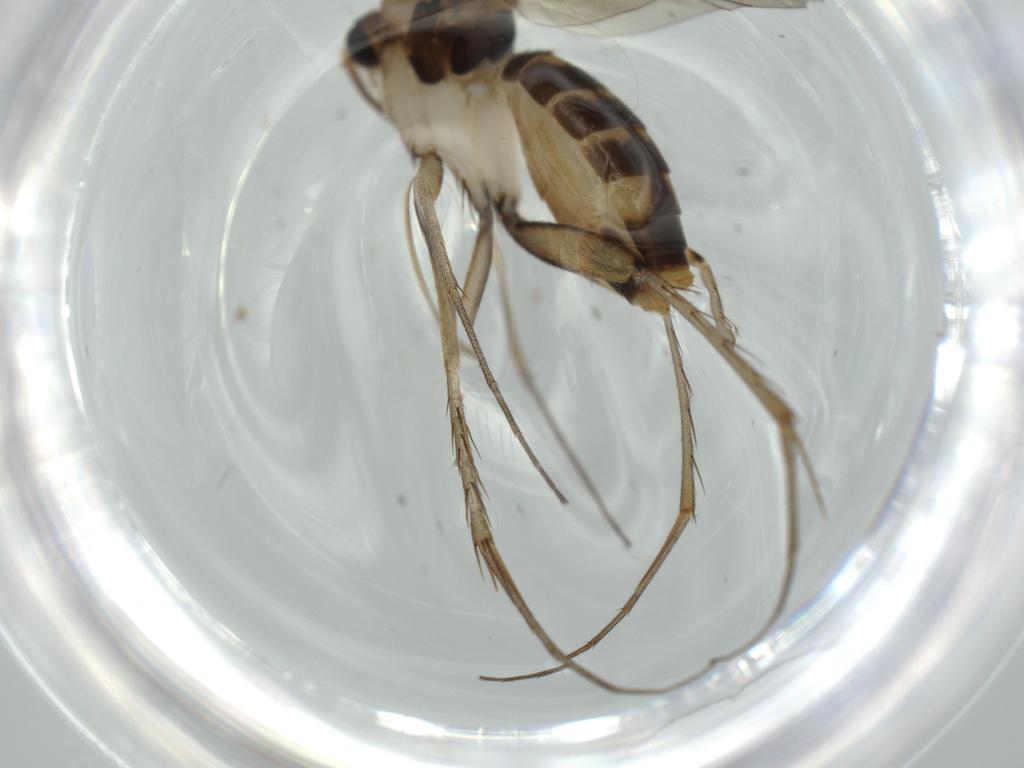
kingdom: Animalia
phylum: Arthropoda
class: Insecta
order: Diptera
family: Mycetophilidae
